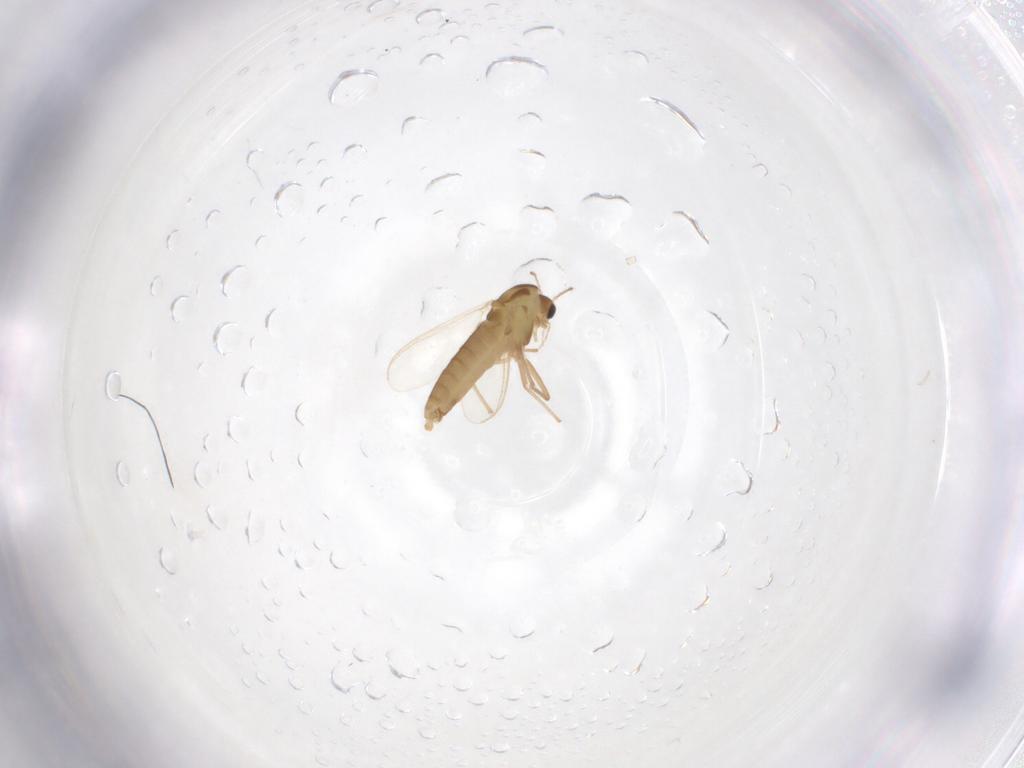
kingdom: Animalia
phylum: Arthropoda
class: Insecta
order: Diptera
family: Chironomidae
